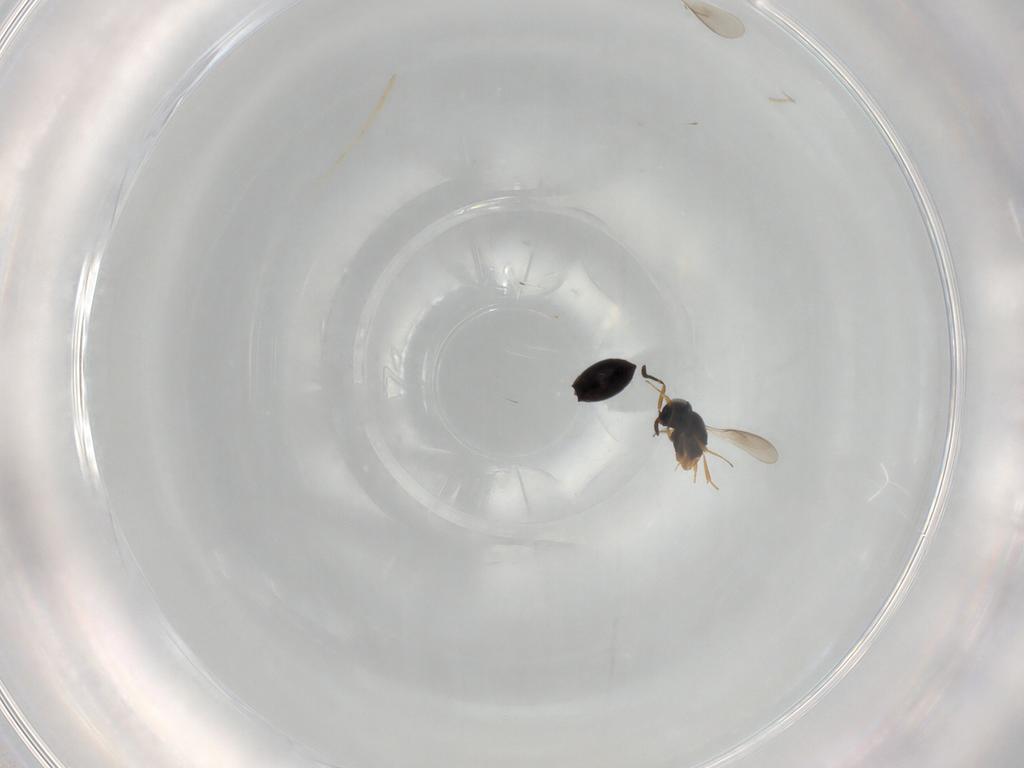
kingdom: Animalia
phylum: Arthropoda
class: Insecta
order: Hymenoptera
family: Scelionidae
